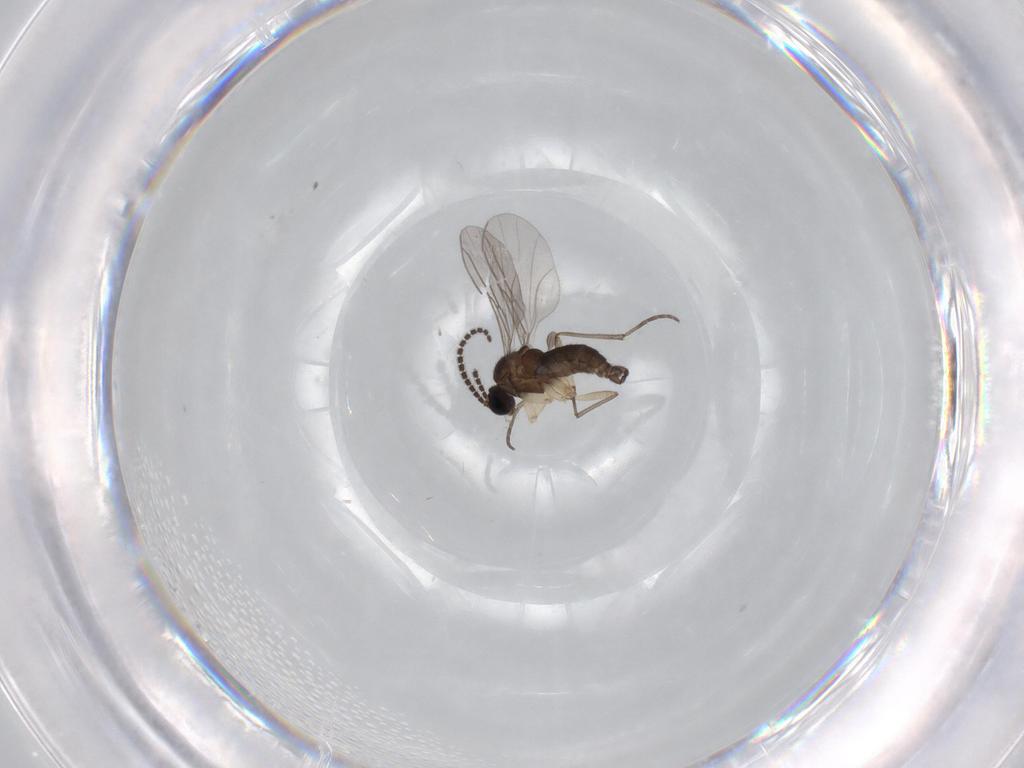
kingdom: Animalia
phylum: Arthropoda
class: Insecta
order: Diptera
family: Sciaridae
